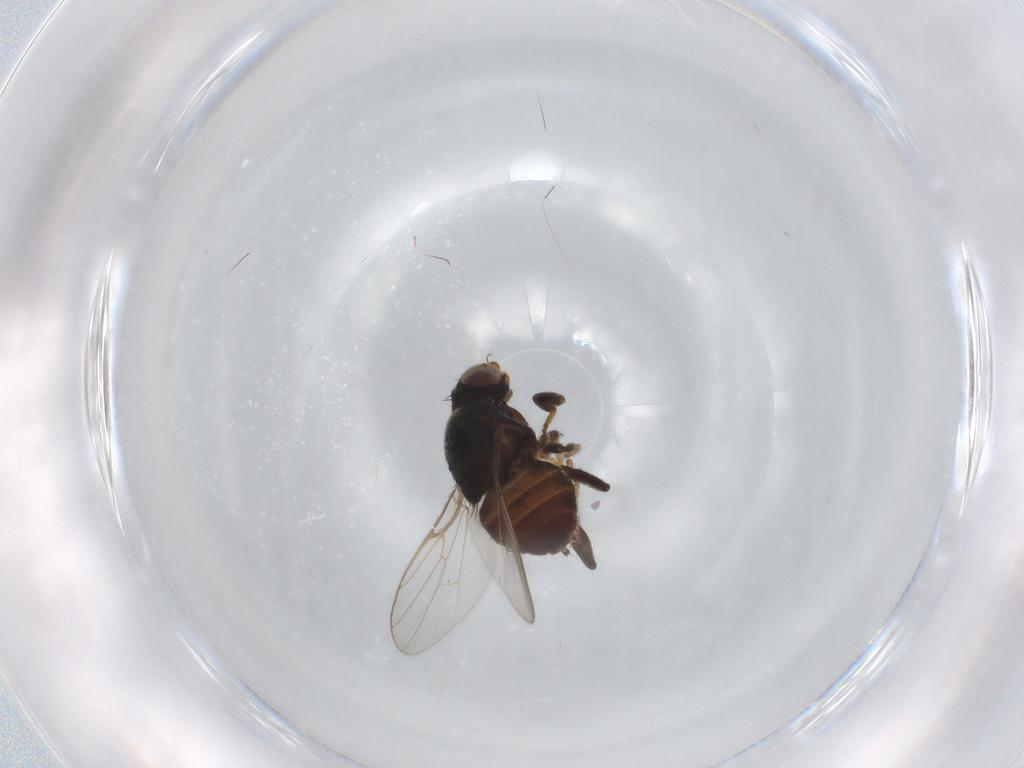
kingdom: Animalia
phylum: Arthropoda
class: Insecta
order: Diptera
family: Chloropidae
